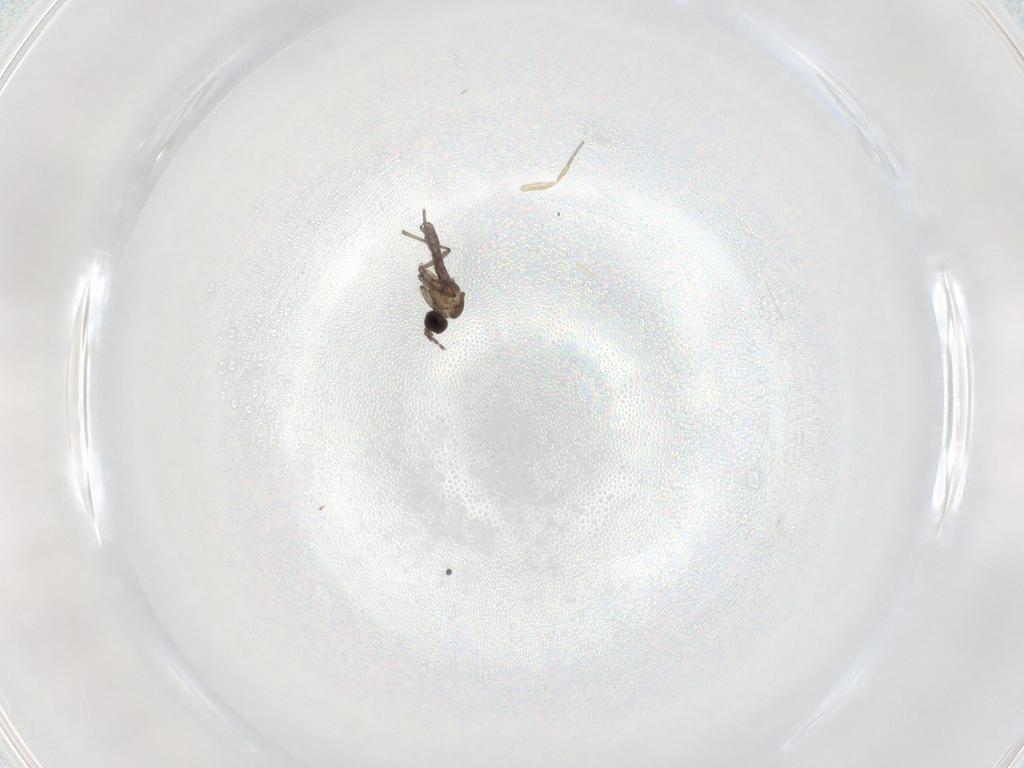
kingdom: Animalia
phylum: Arthropoda
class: Insecta
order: Diptera
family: Sciaridae
